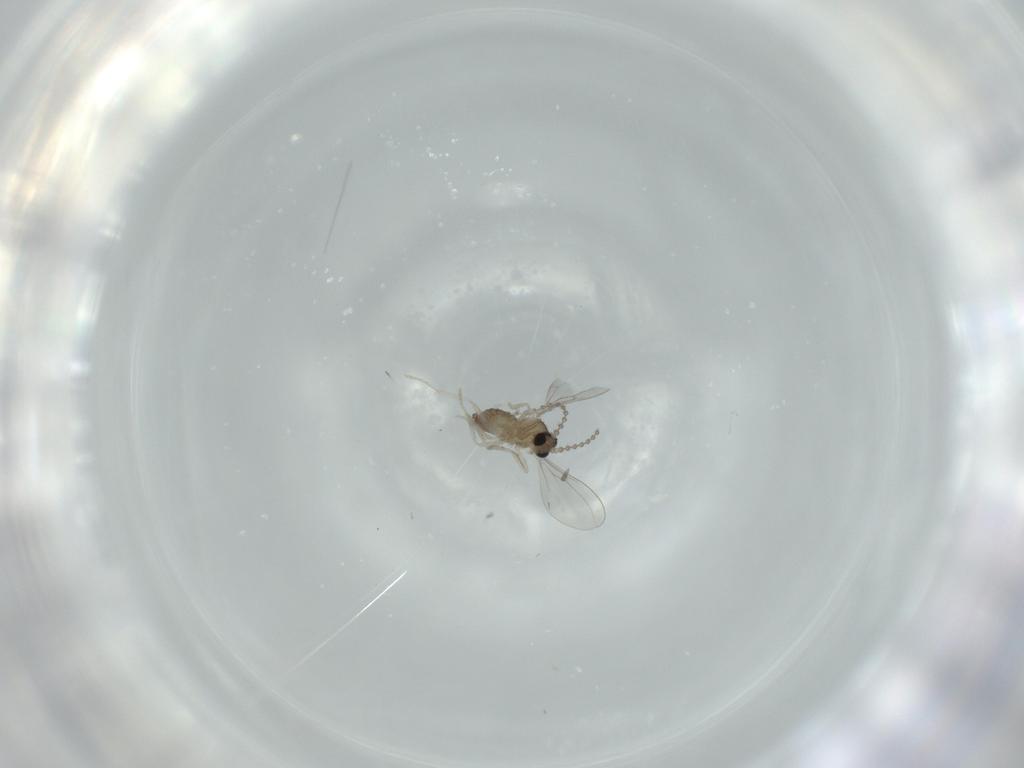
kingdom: Animalia
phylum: Arthropoda
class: Insecta
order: Diptera
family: Cecidomyiidae
